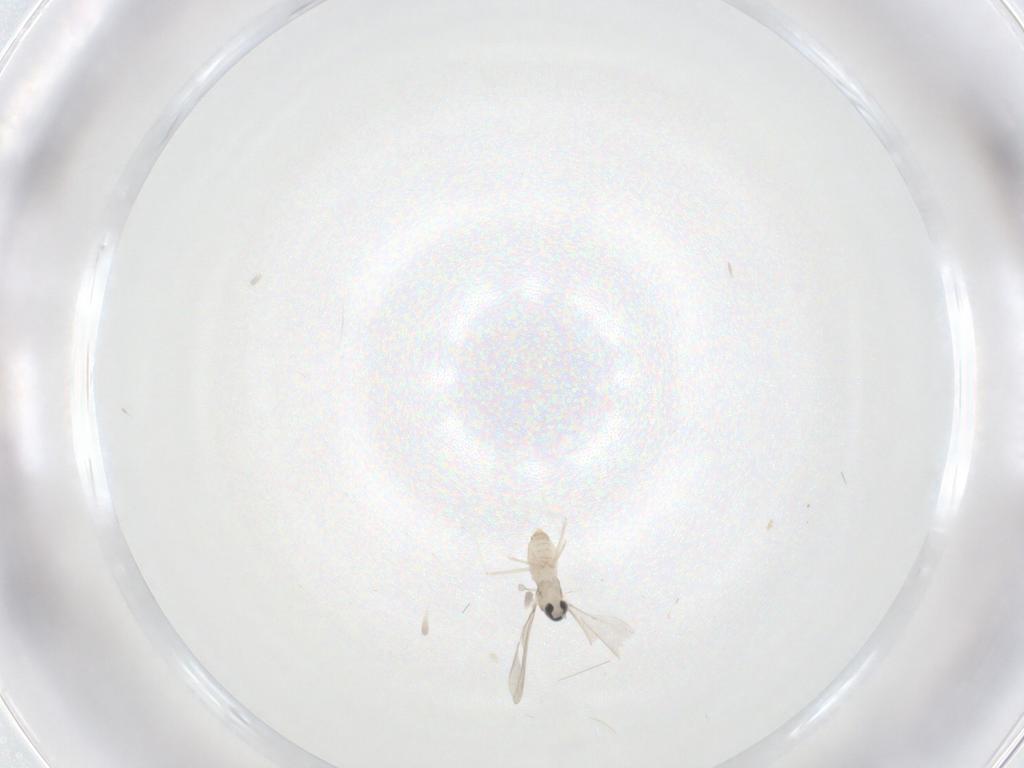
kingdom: Animalia
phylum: Arthropoda
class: Insecta
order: Diptera
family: Cecidomyiidae
